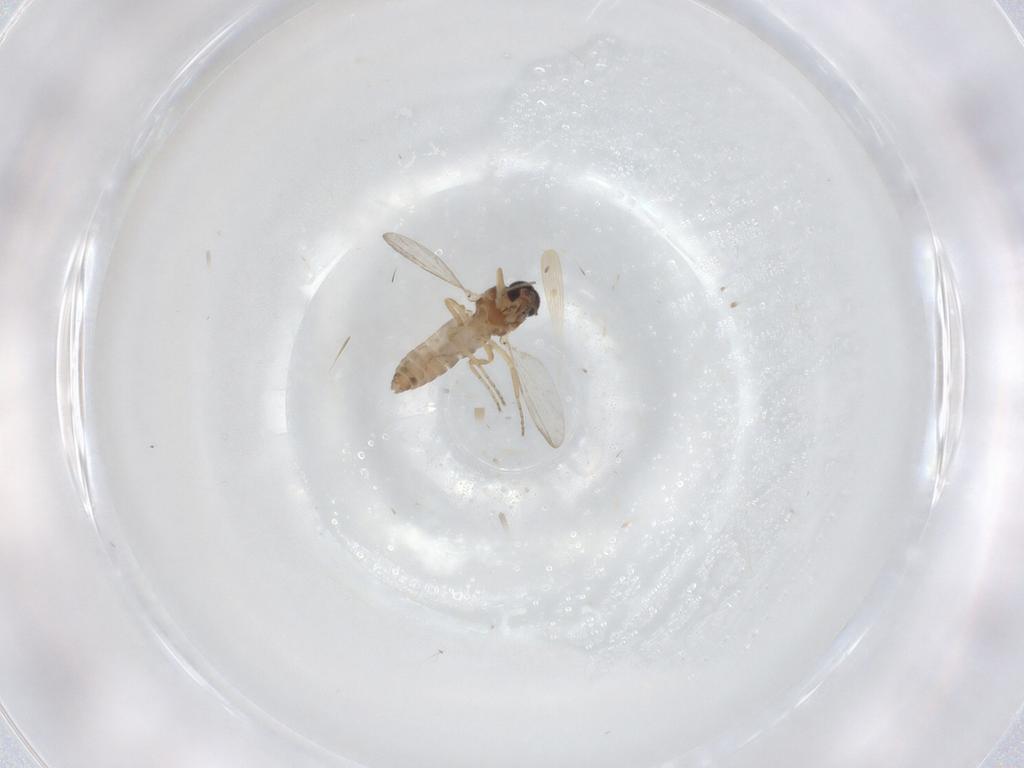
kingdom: Animalia
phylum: Arthropoda
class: Insecta
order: Diptera
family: Ceratopogonidae
